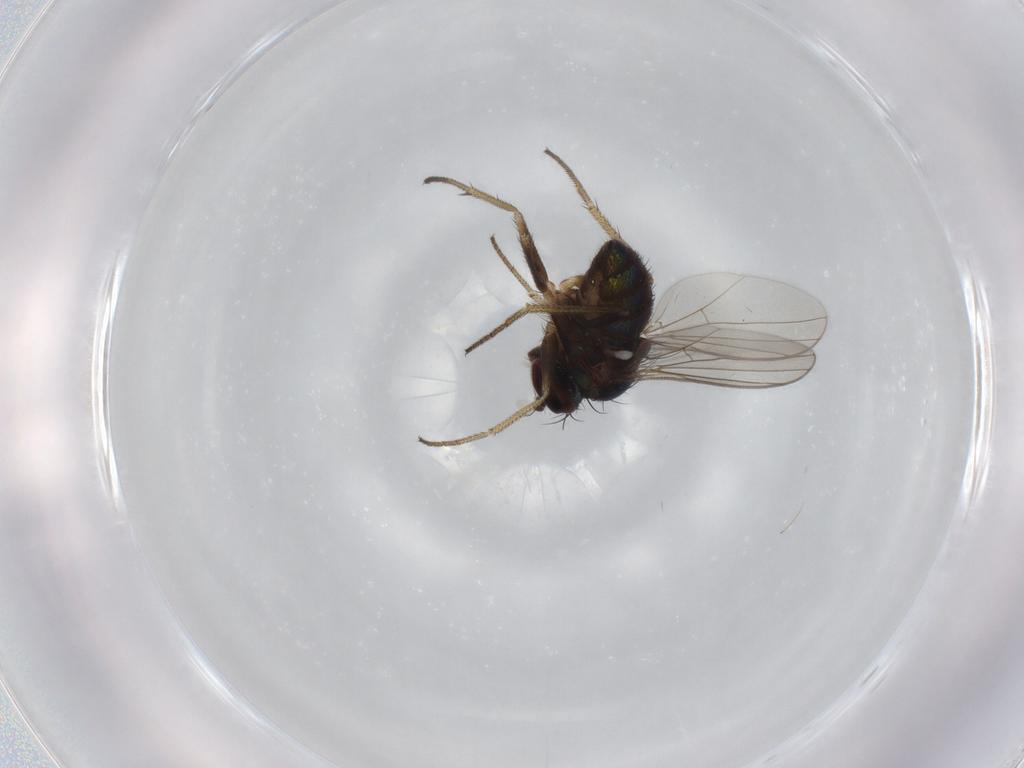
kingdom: Animalia
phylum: Arthropoda
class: Insecta
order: Diptera
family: Dolichopodidae
